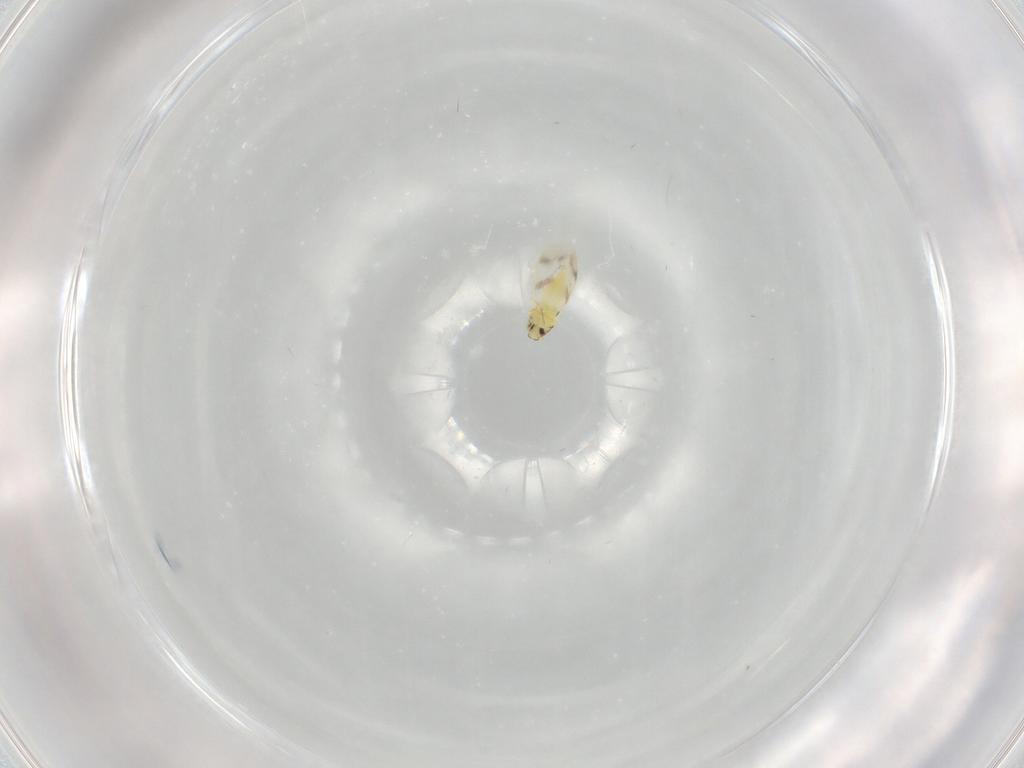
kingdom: Animalia
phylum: Arthropoda
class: Insecta
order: Hemiptera
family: Aleyrodidae
